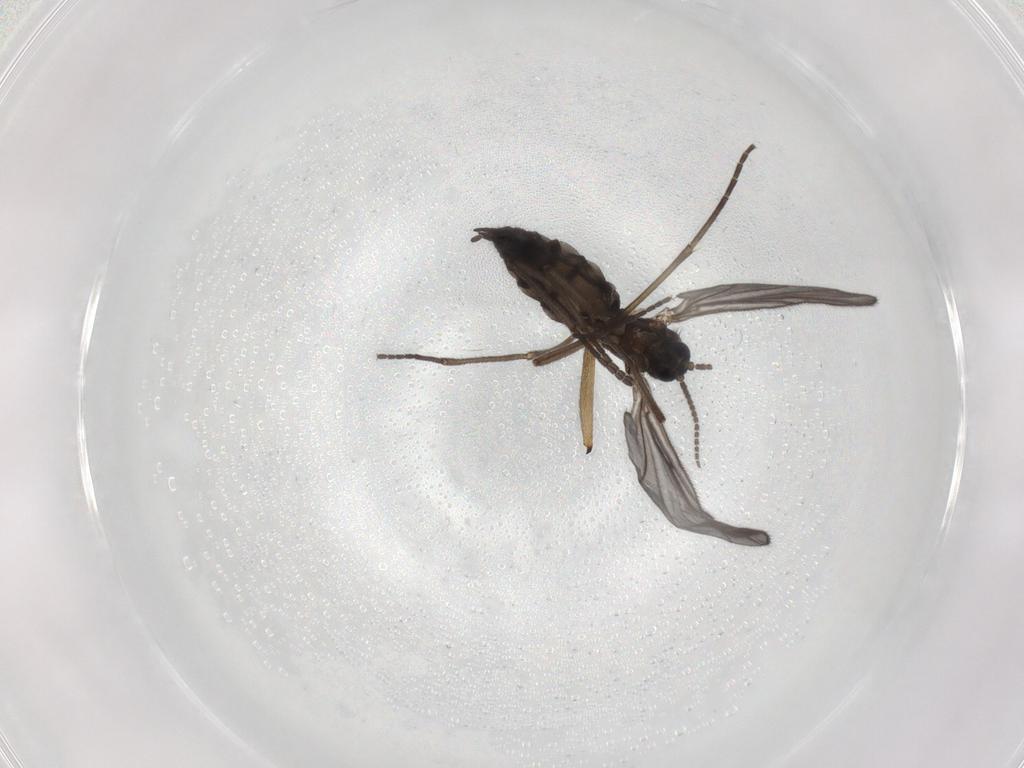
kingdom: Animalia
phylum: Arthropoda
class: Insecta
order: Diptera
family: Sciaridae
